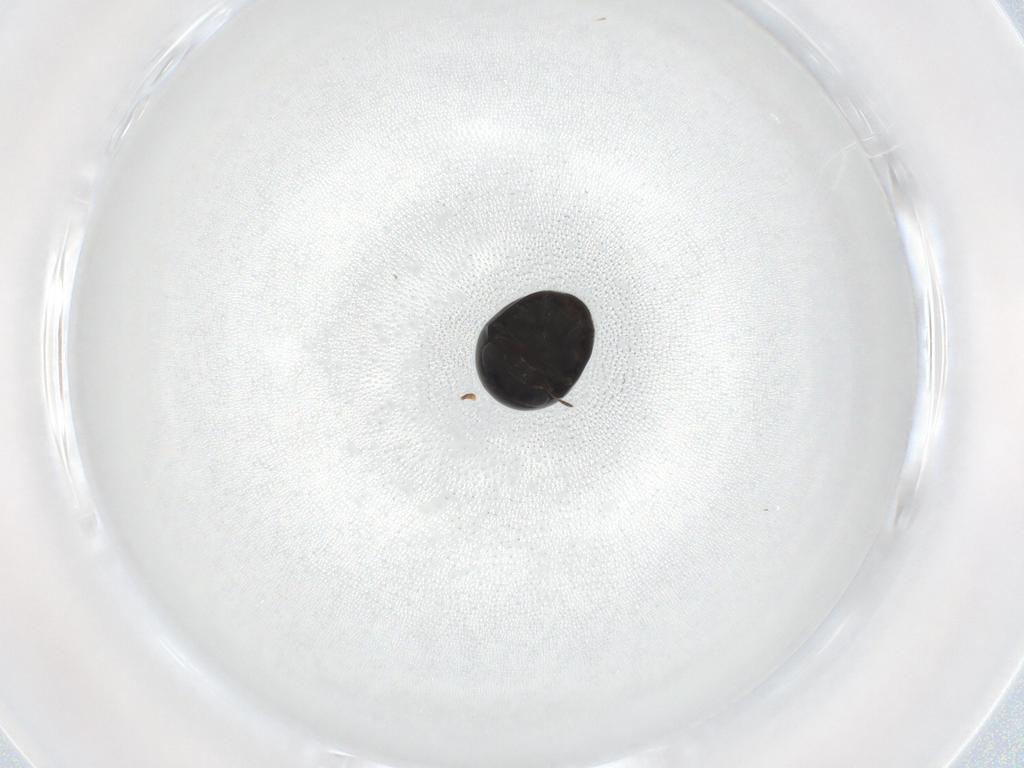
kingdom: Animalia
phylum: Arthropoda
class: Insecta
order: Coleoptera
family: Cybocephalidae
